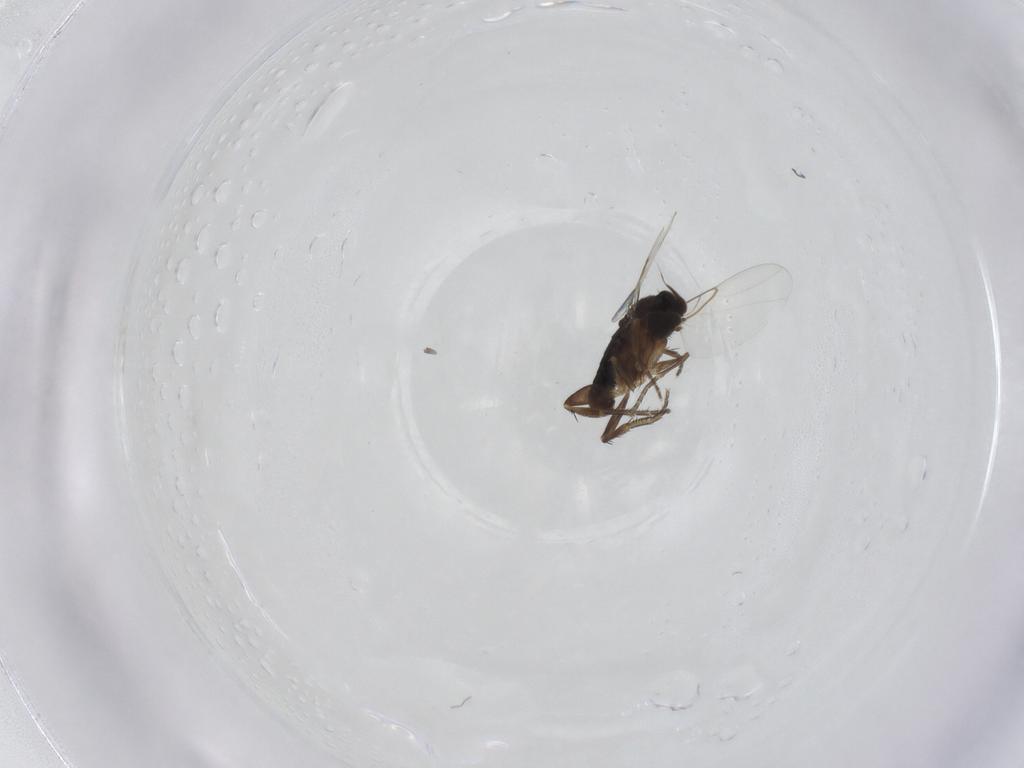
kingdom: Animalia
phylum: Arthropoda
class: Insecta
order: Diptera
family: Phoridae
